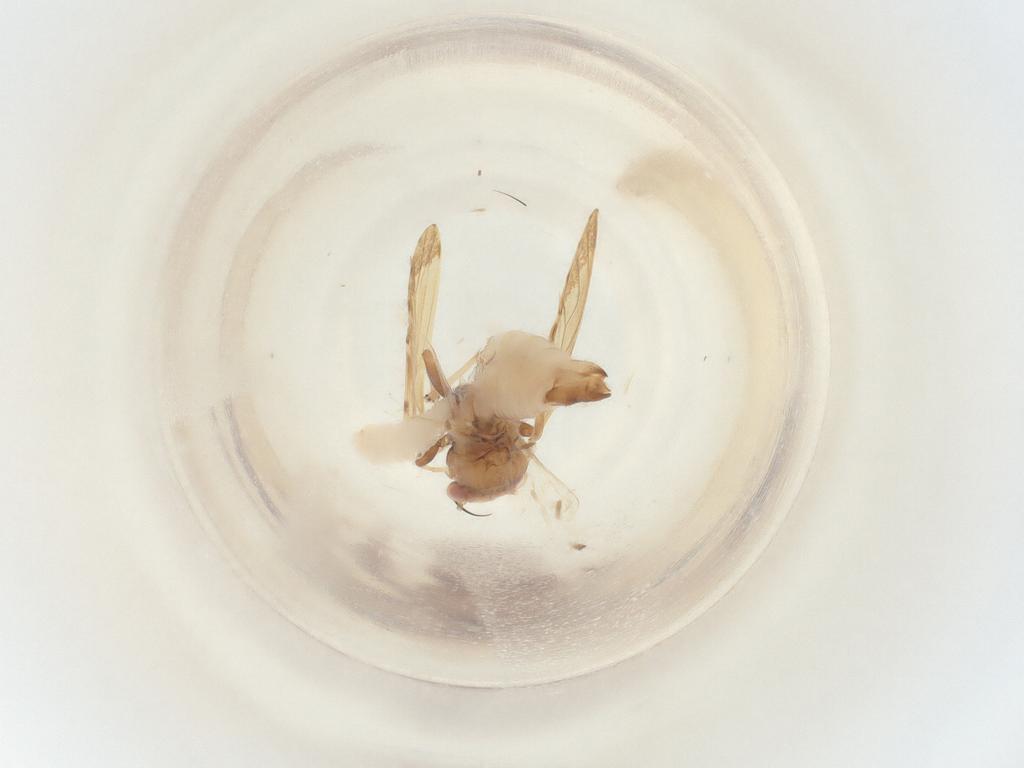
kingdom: Animalia
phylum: Arthropoda
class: Insecta
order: Hymenoptera
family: Chrysididae
